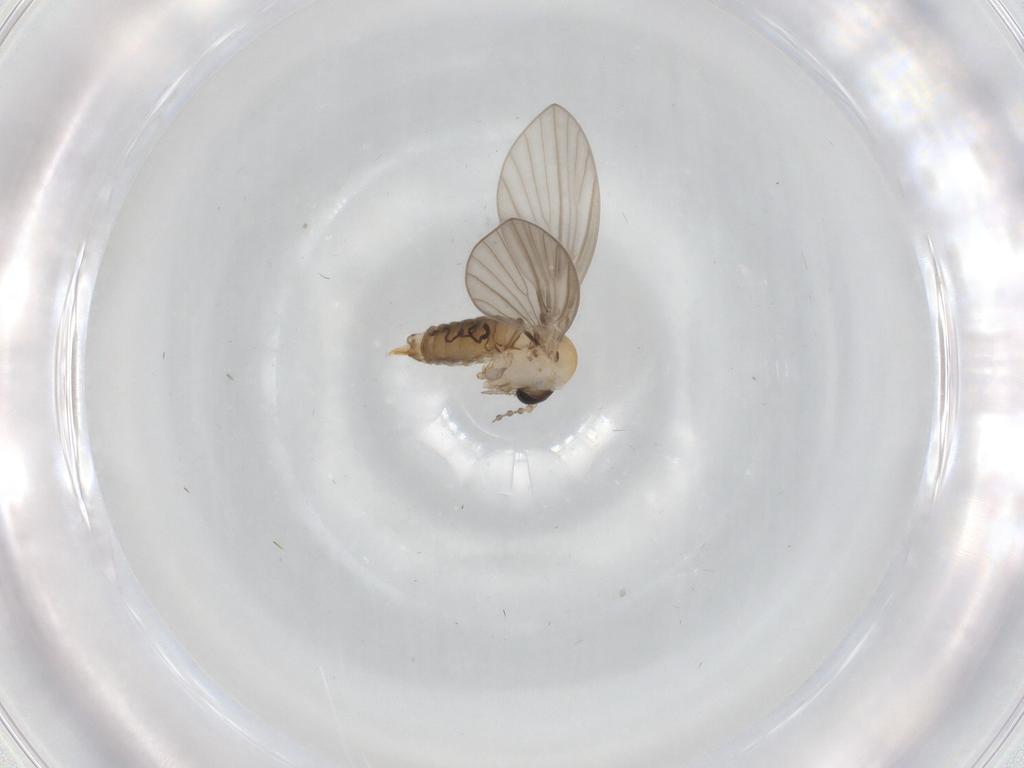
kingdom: Animalia
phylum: Arthropoda
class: Insecta
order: Diptera
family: Psychodidae
